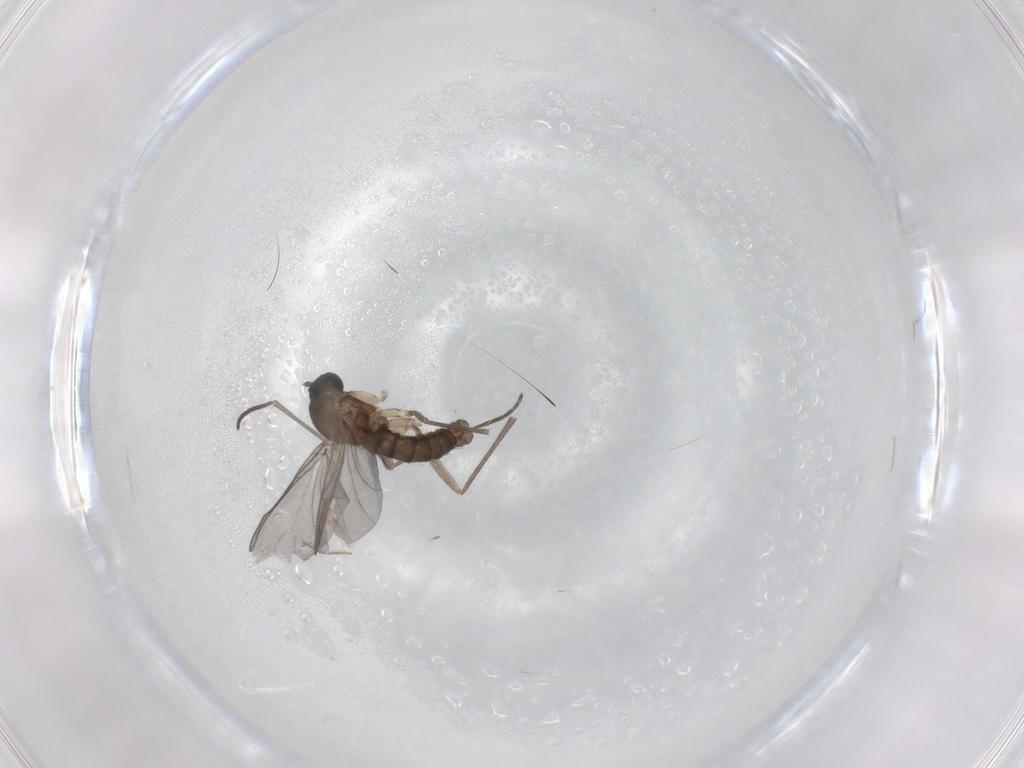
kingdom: Animalia
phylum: Arthropoda
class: Insecta
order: Diptera
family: Sciaridae
